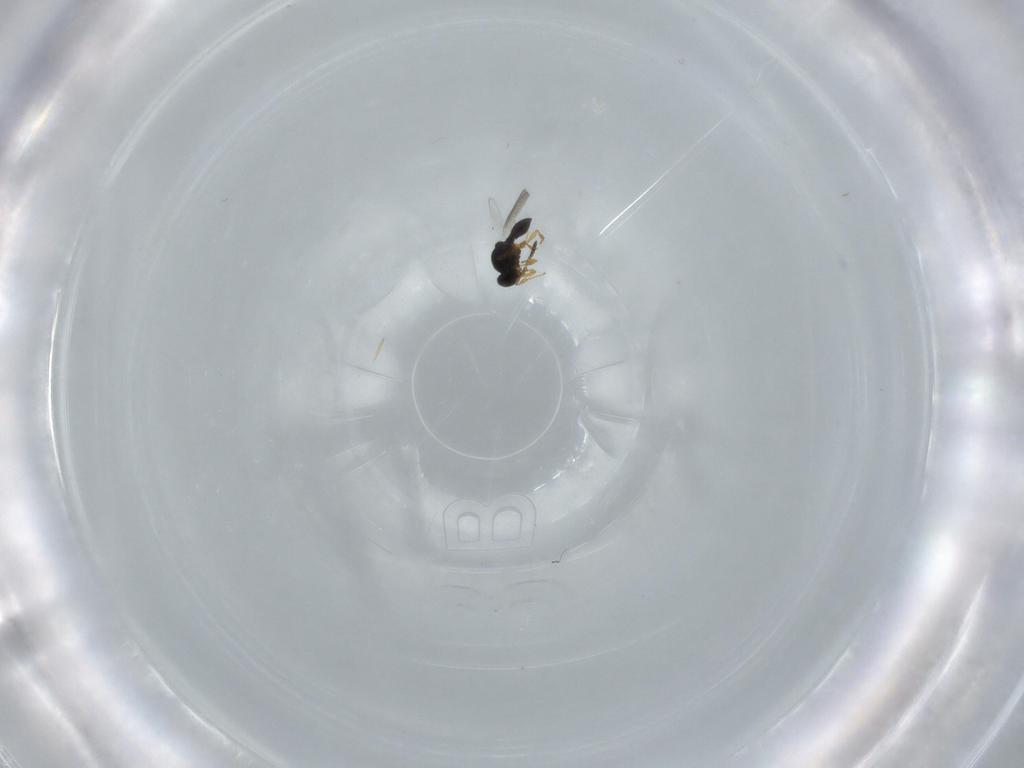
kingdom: Animalia
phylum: Arthropoda
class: Insecta
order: Hymenoptera
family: Platygastridae
